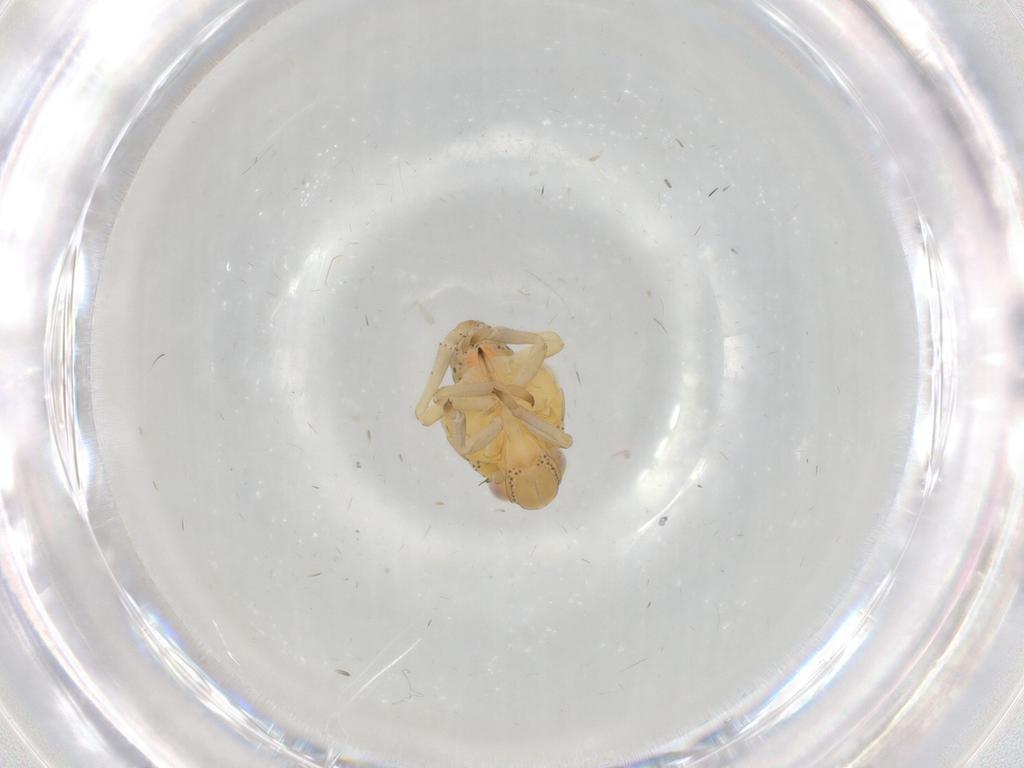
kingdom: Animalia
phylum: Arthropoda
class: Insecta
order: Hemiptera
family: Tropiduchidae
